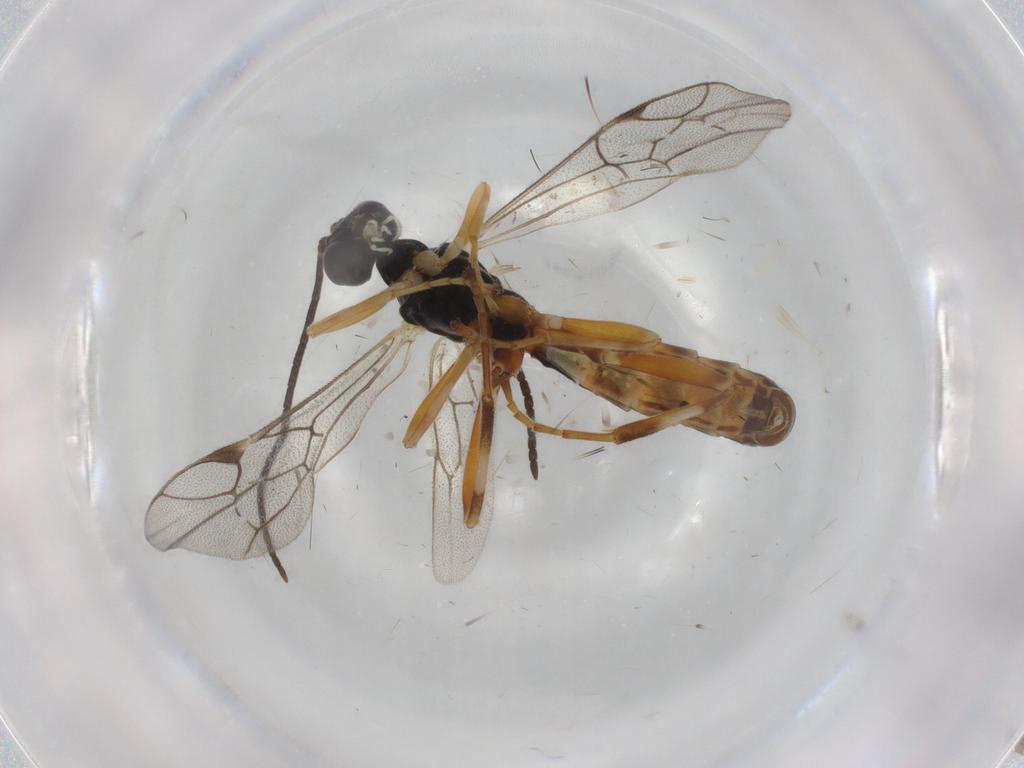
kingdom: Animalia
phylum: Arthropoda
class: Insecta
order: Hymenoptera
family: Ichneumonidae
